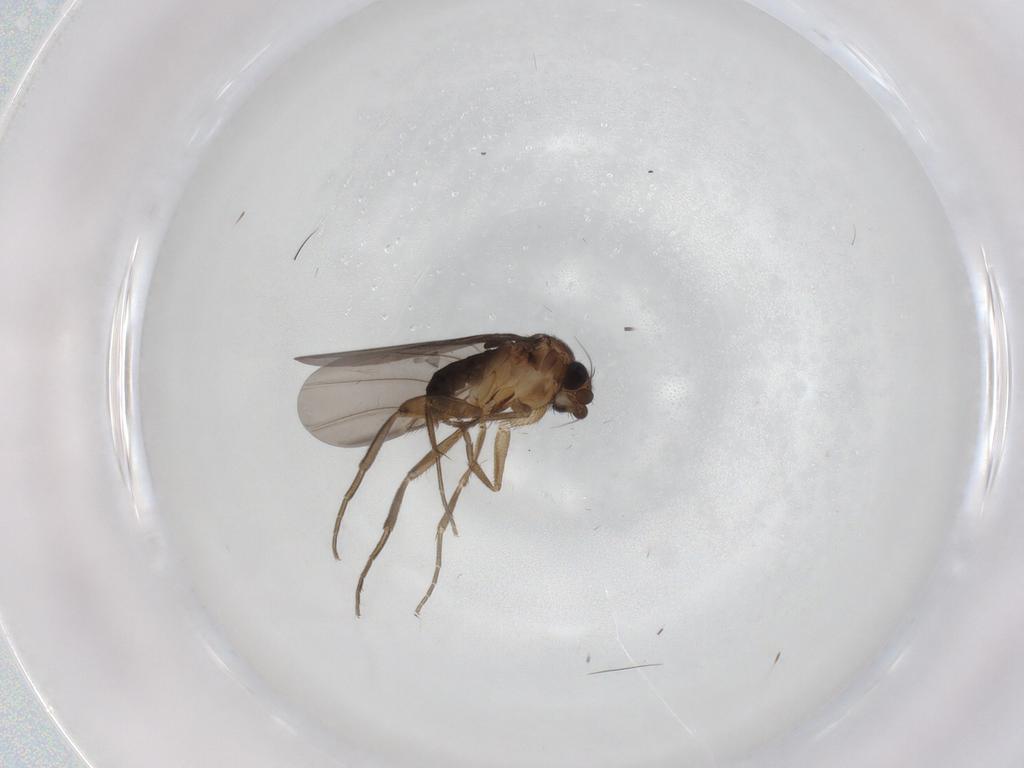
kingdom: Animalia
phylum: Arthropoda
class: Insecta
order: Diptera
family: Phoridae
